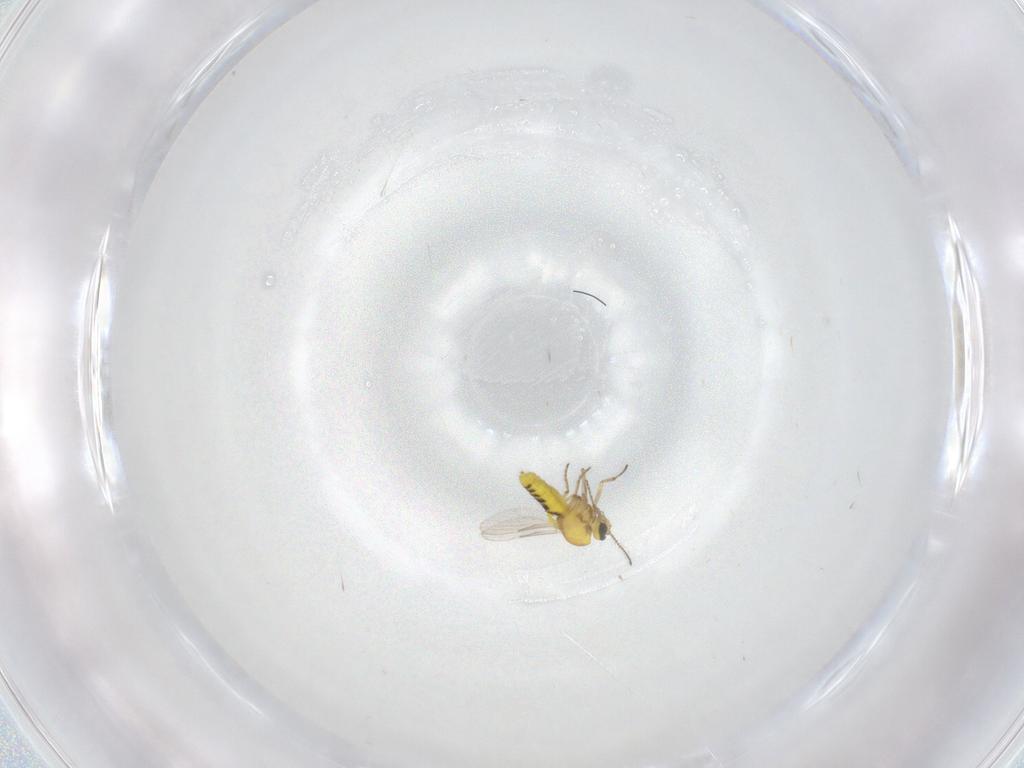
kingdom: Animalia
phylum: Arthropoda
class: Insecta
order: Diptera
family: Ceratopogonidae
